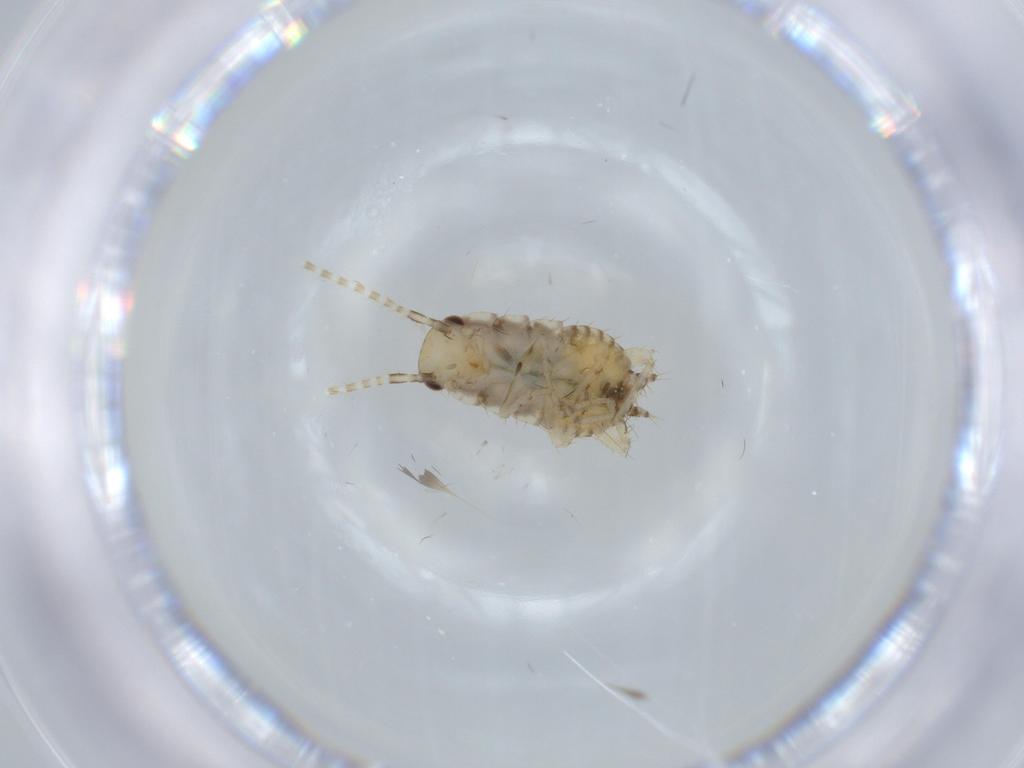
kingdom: Animalia
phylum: Arthropoda
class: Insecta
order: Blattodea
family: Ectobiidae
